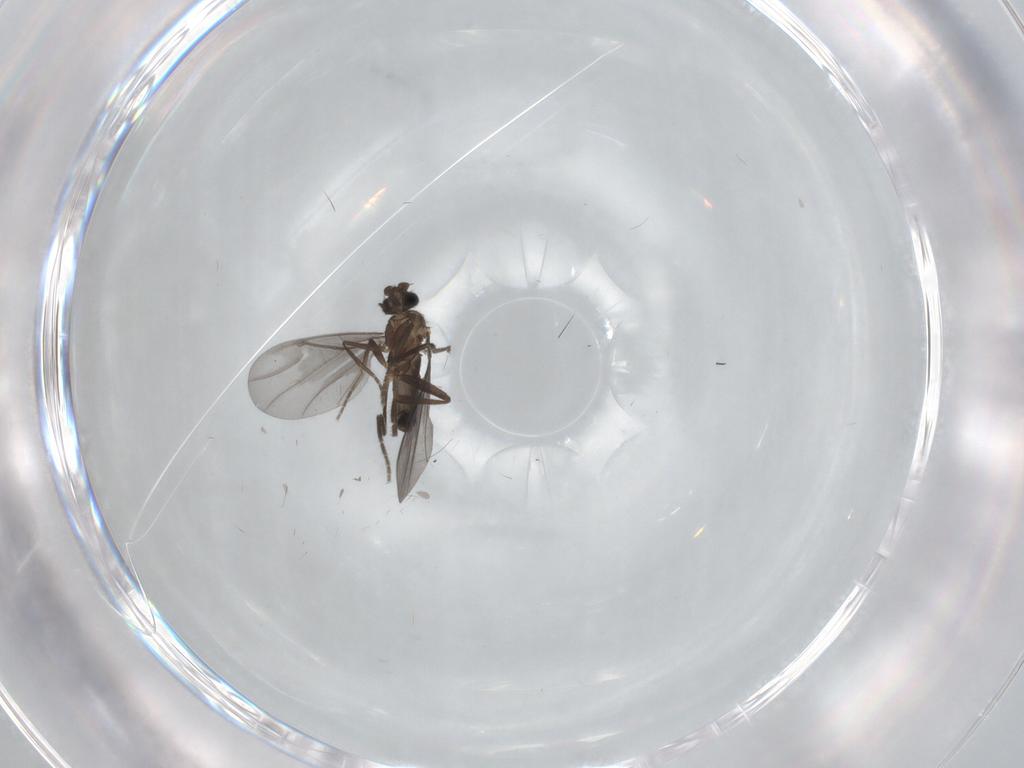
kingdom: Animalia
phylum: Arthropoda
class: Insecta
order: Diptera
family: Phoridae
